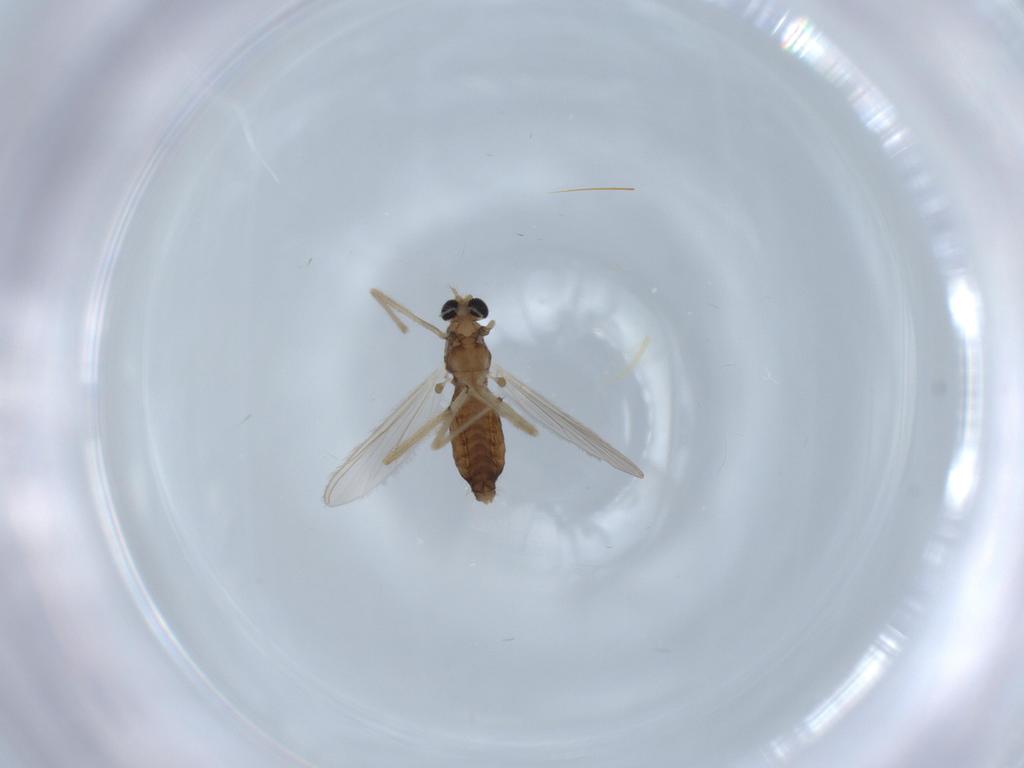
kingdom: Animalia
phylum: Arthropoda
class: Insecta
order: Diptera
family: Chironomidae
